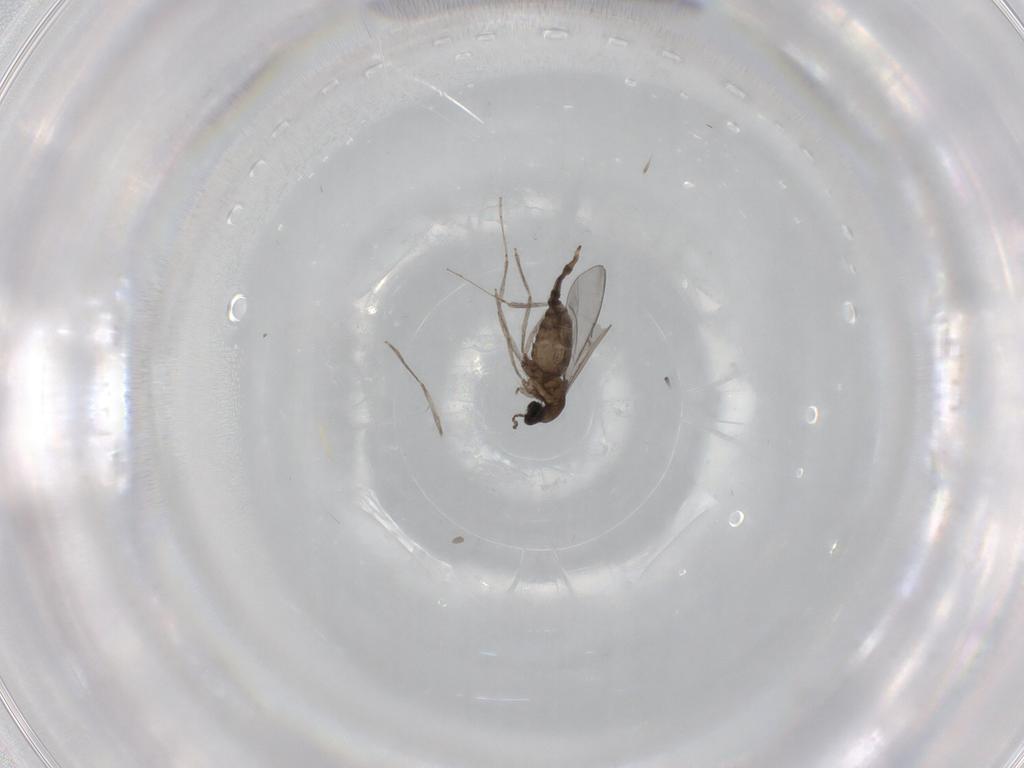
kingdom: Animalia
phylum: Arthropoda
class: Insecta
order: Diptera
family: Cecidomyiidae
